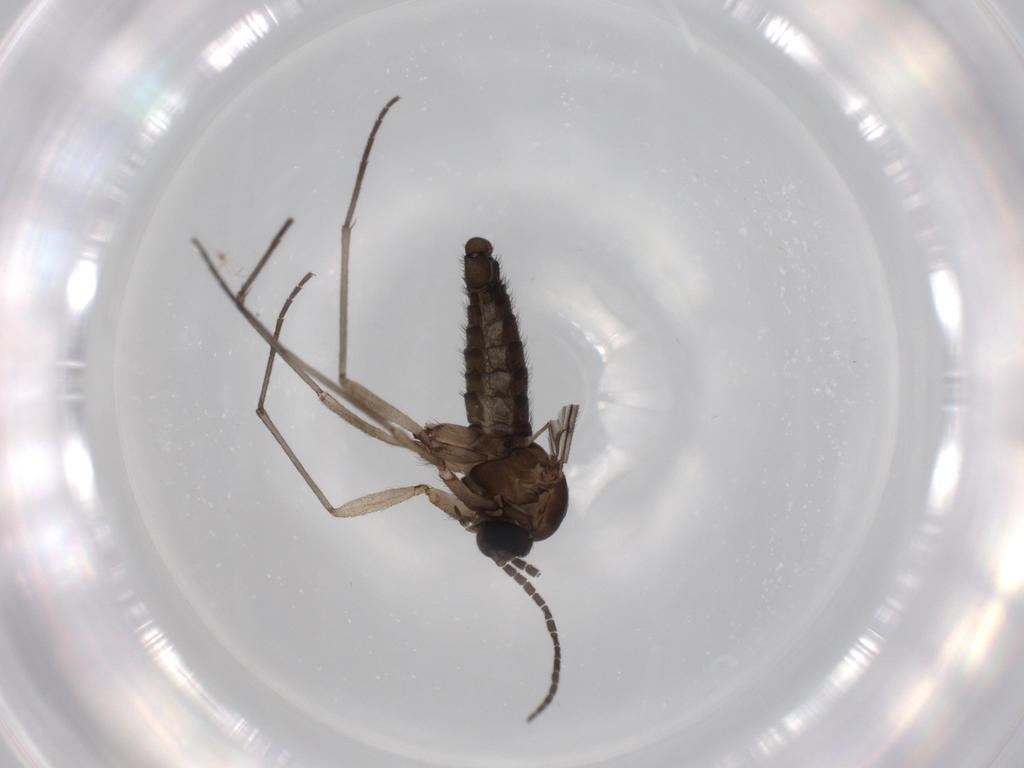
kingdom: Animalia
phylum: Arthropoda
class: Insecta
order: Diptera
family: Sciaridae
